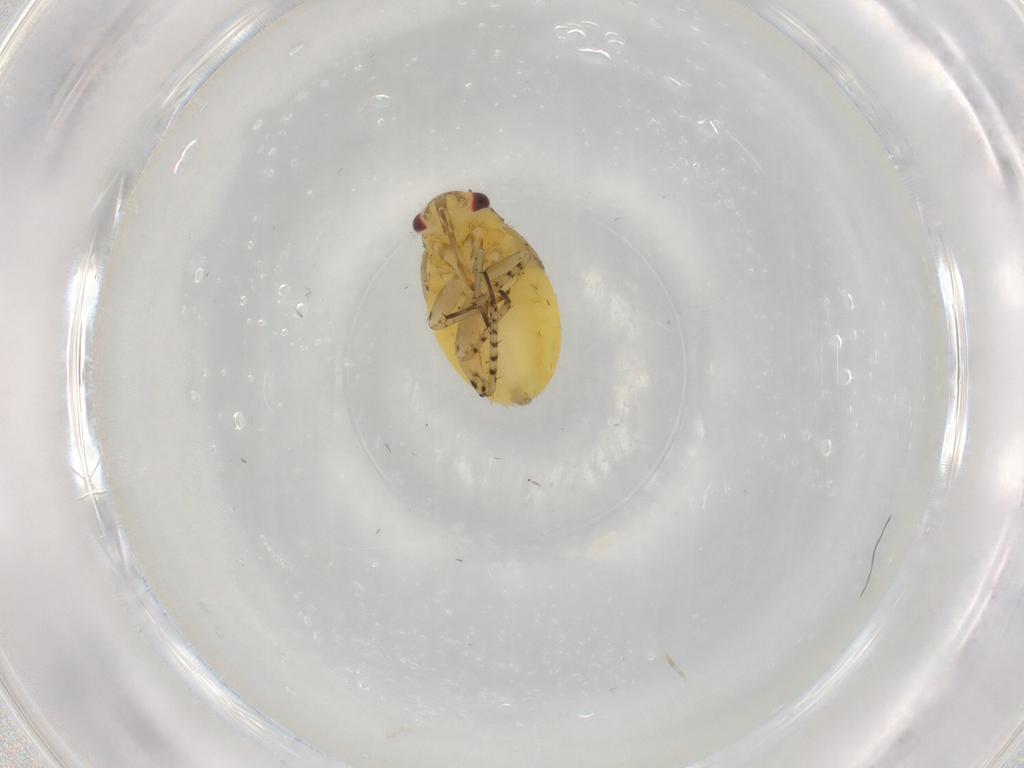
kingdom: Animalia
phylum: Arthropoda
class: Insecta
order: Hemiptera
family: Miridae
